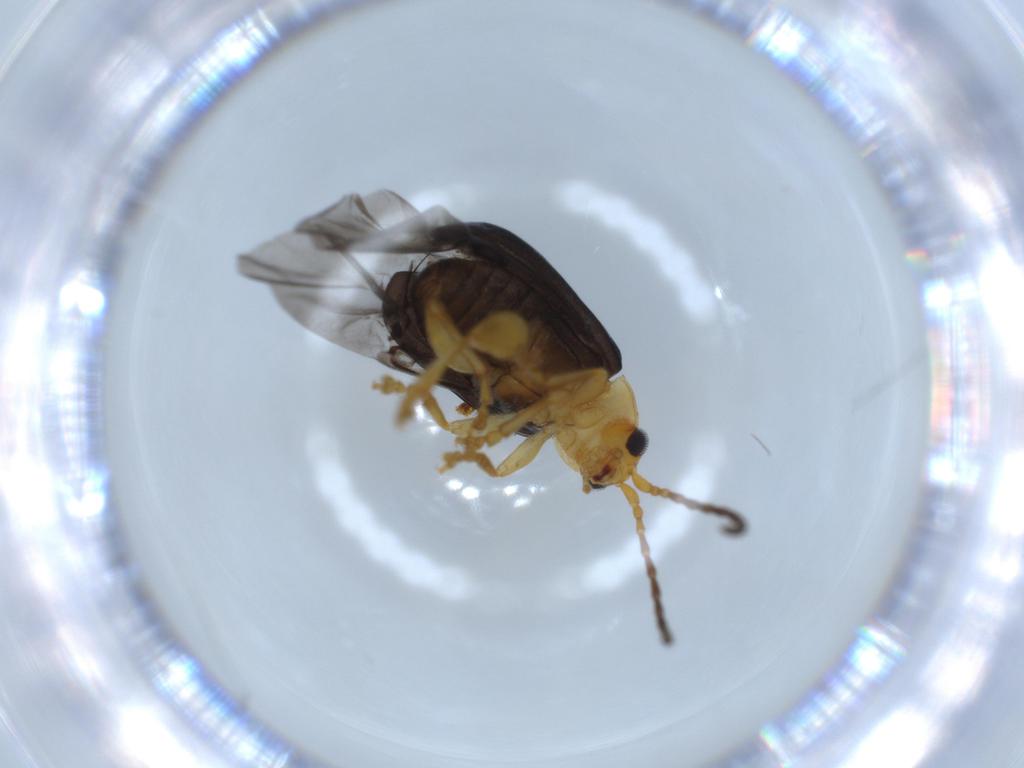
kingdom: Animalia
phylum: Arthropoda
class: Insecta
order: Coleoptera
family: Chrysomelidae
